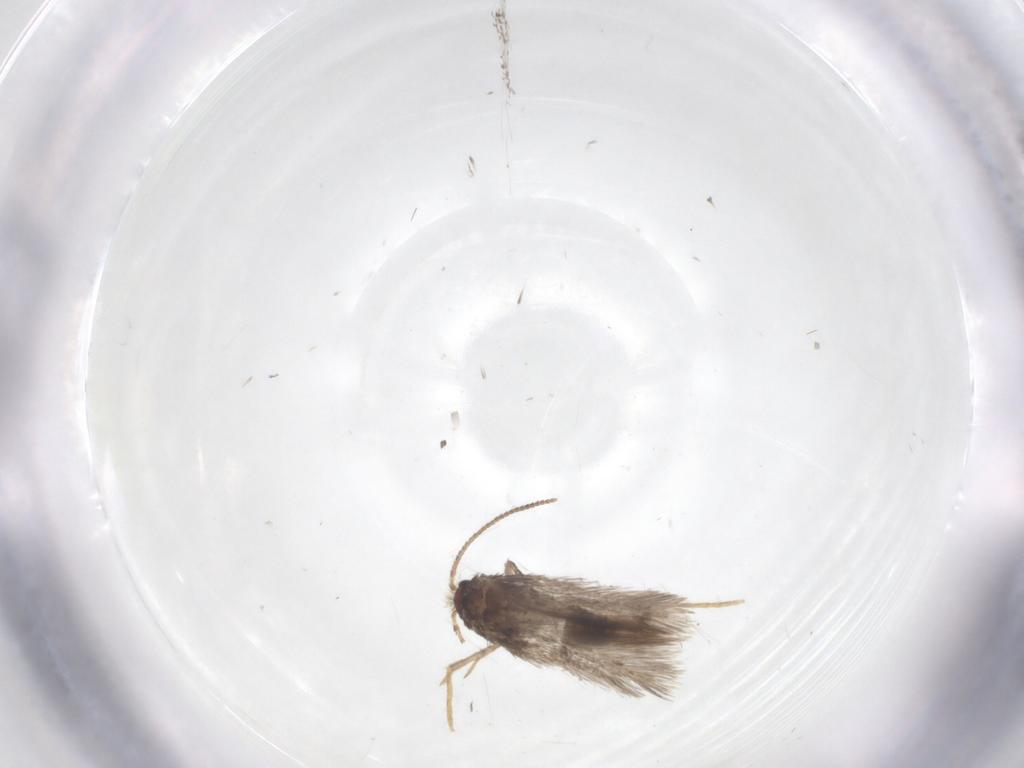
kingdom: Animalia
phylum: Arthropoda
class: Insecta
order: Lepidoptera
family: Nepticulidae
